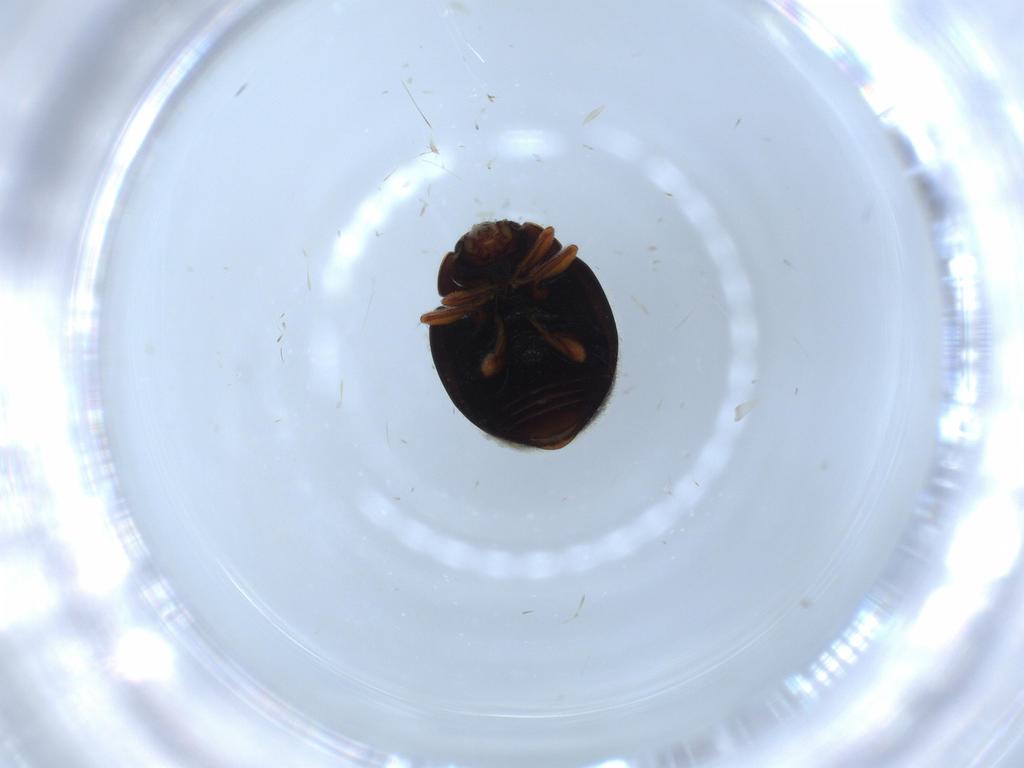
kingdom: Animalia
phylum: Arthropoda
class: Insecta
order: Coleoptera
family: Coccinellidae
